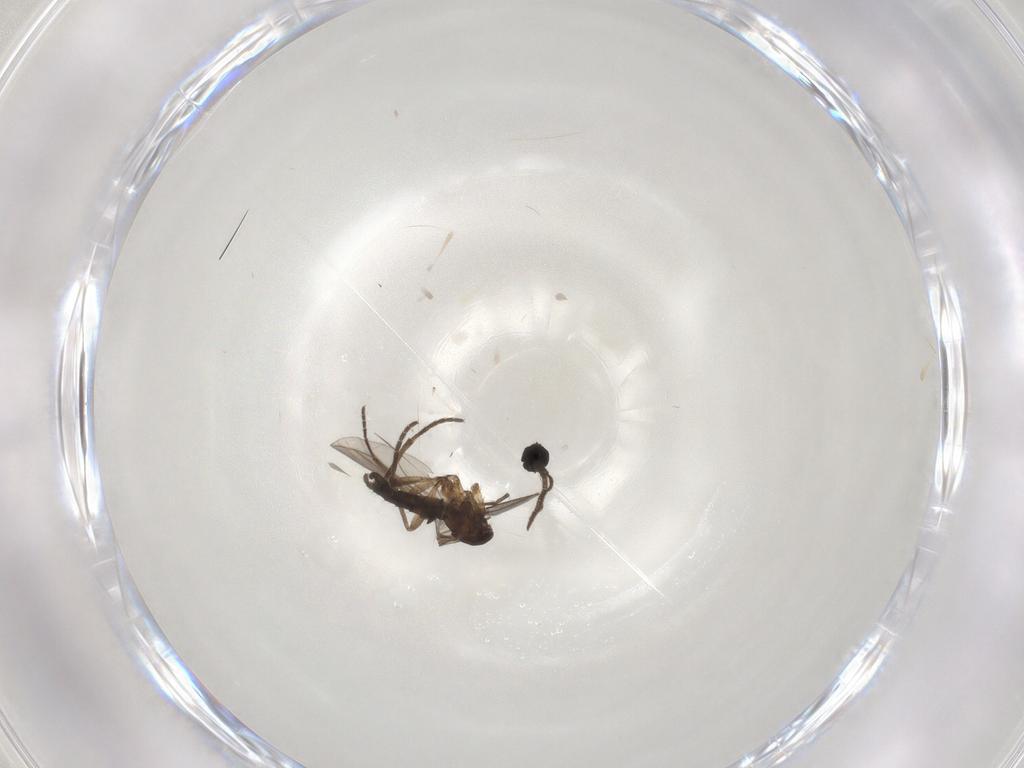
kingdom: Animalia
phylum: Arthropoda
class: Insecta
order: Diptera
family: Sciaridae
